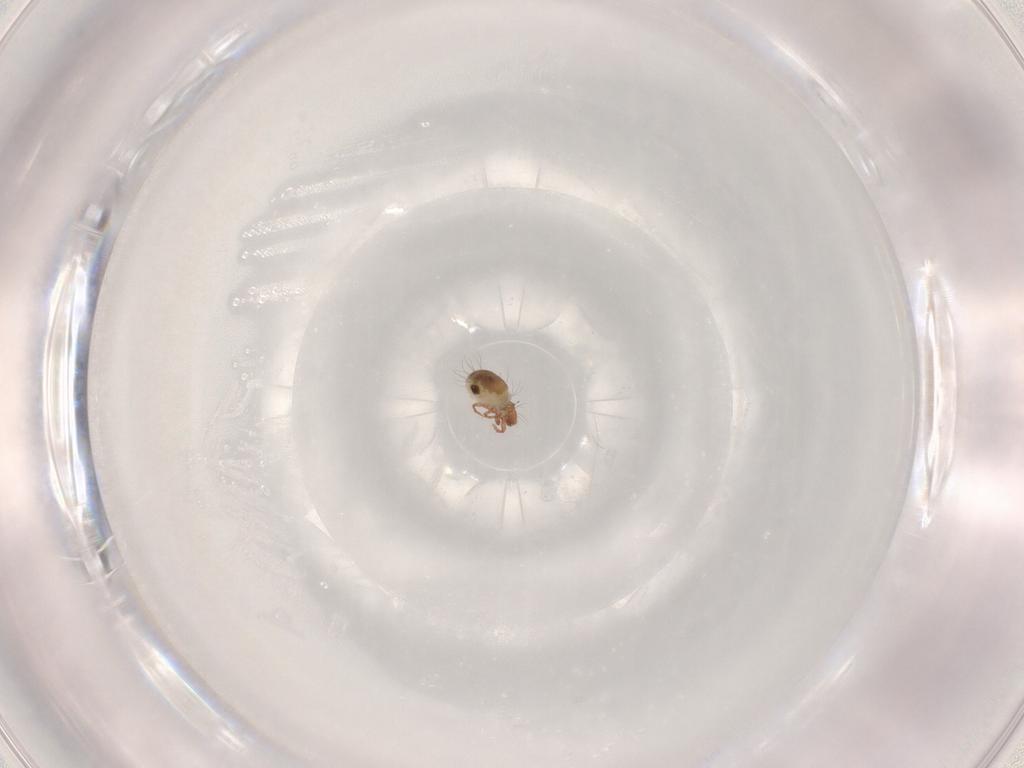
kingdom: Animalia
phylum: Arthropoda
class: Arachnida
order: Sarcoptiformes
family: Humerobatidae
